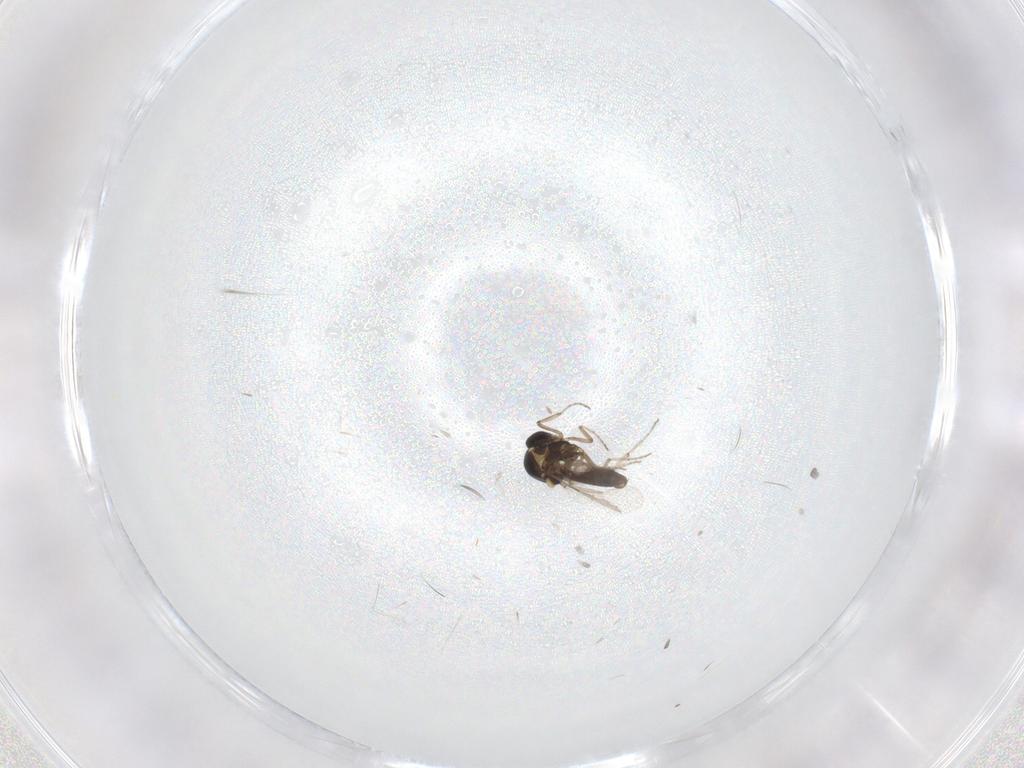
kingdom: Animalia
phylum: Arthropoda
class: Insecta
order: Diptera
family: Ceratopogonidae
